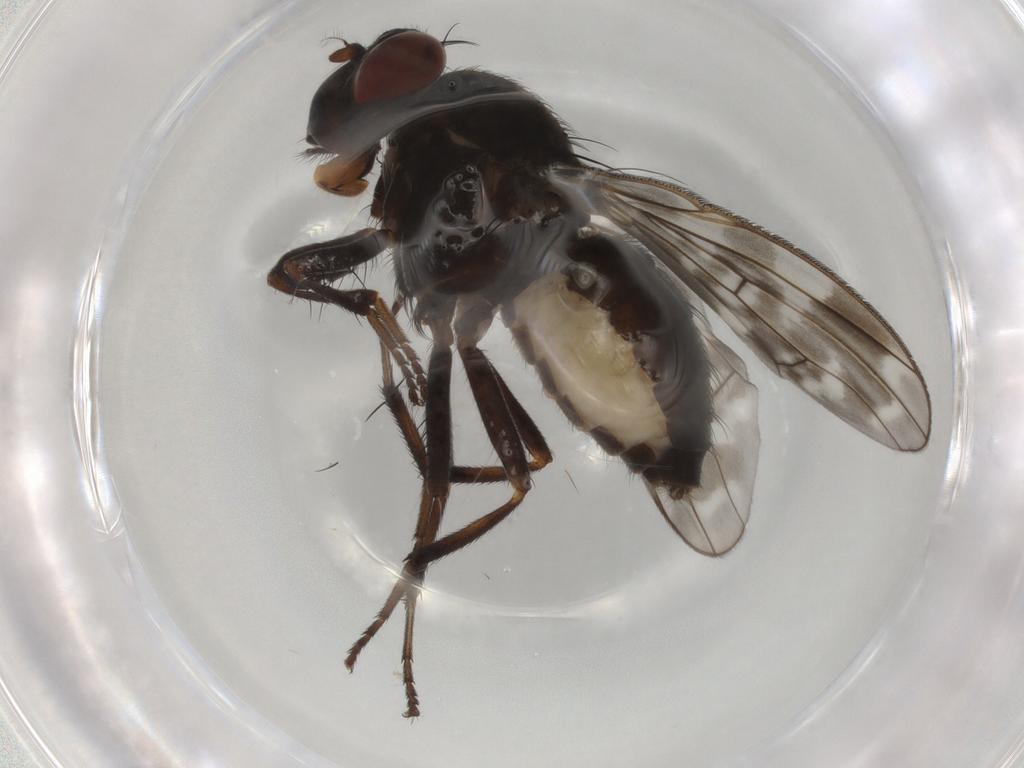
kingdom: Animalia
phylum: Arthropoda
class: Insecta
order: Diptera
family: Lauxaniidae
